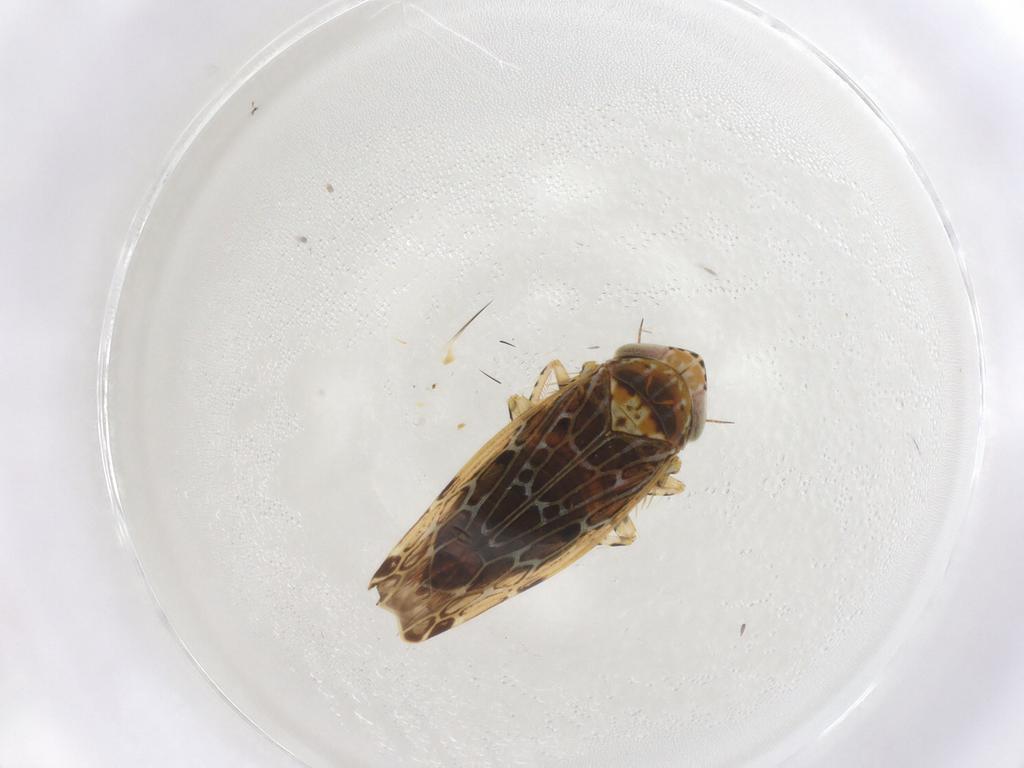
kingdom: Animalia
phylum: Arthropoda
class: Insecta
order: Hemiptera
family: Cicadellidae
